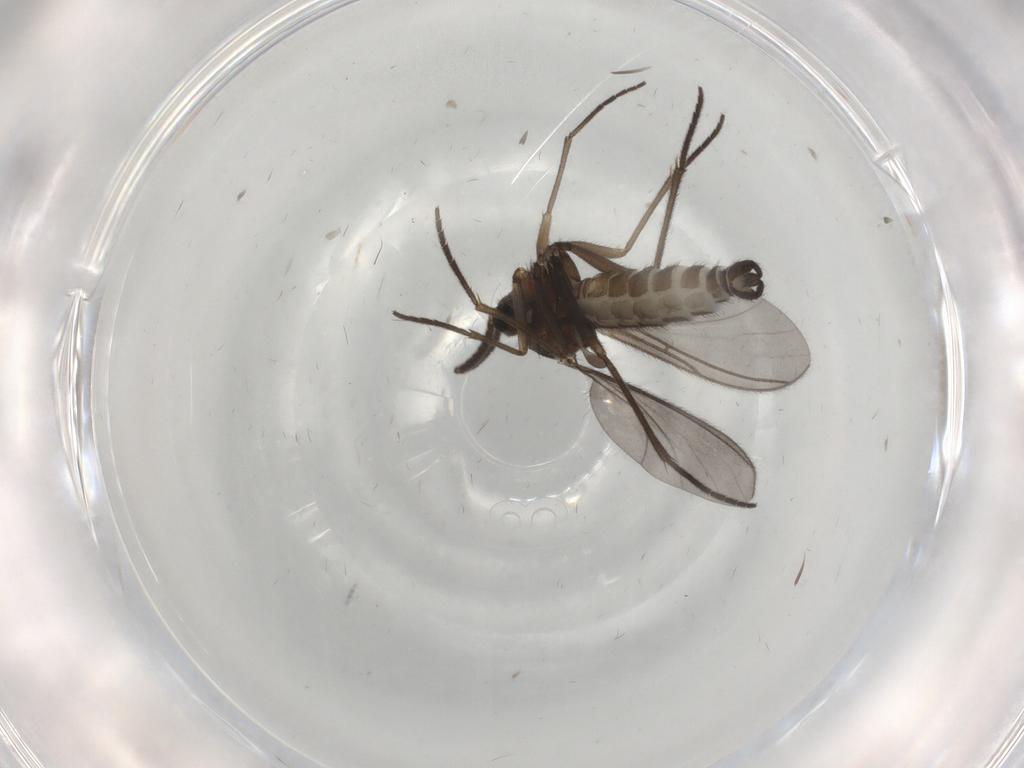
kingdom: Animalia
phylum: Arthropoda
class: Insecta
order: Diptera
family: Sciaridae
